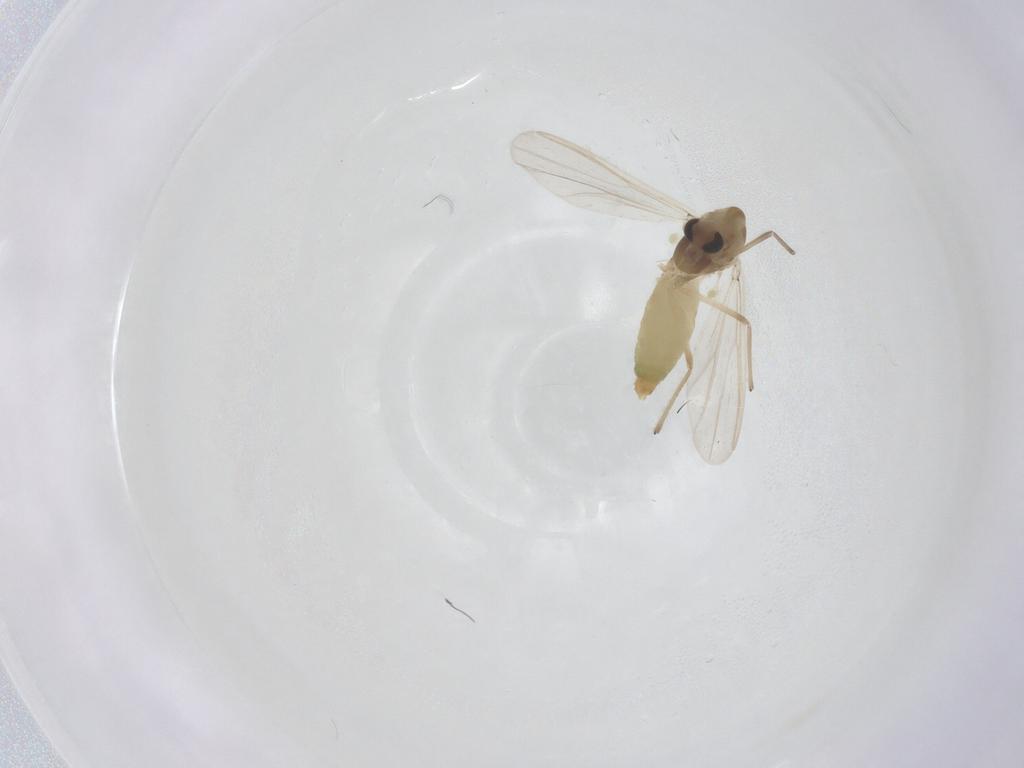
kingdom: Animalia
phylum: Arthropoda
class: Insecta
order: Diptera
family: Chironomidae
